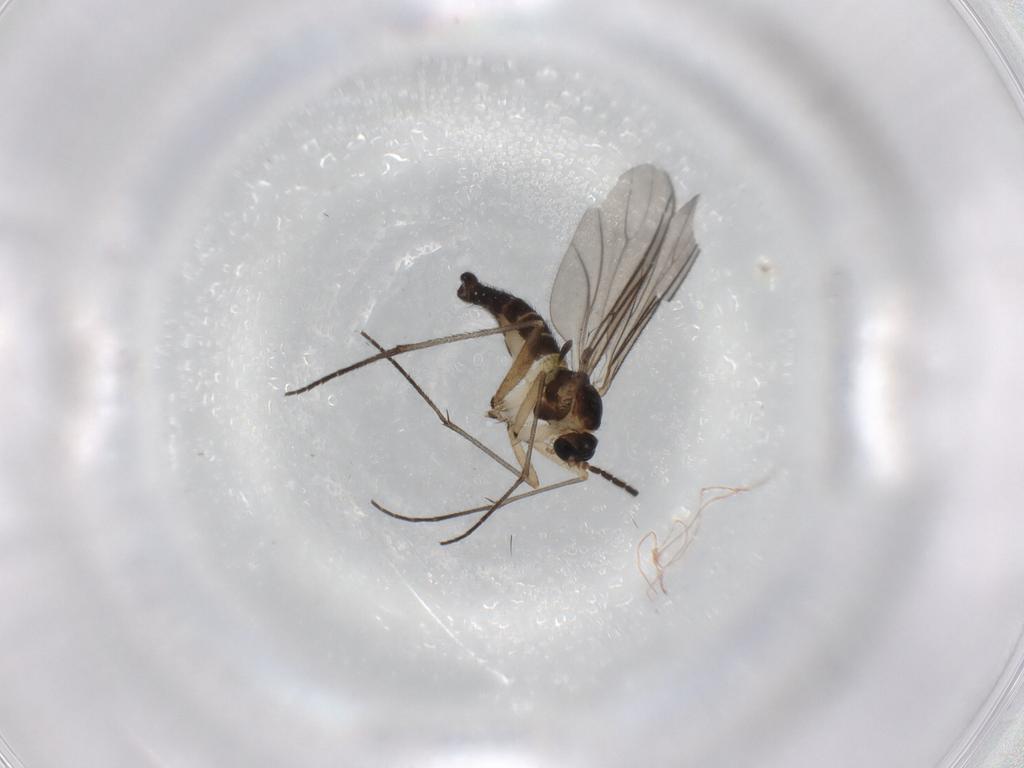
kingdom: Animalia
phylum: Arthropoda
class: Insecta
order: Diptera
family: Sciaridae
